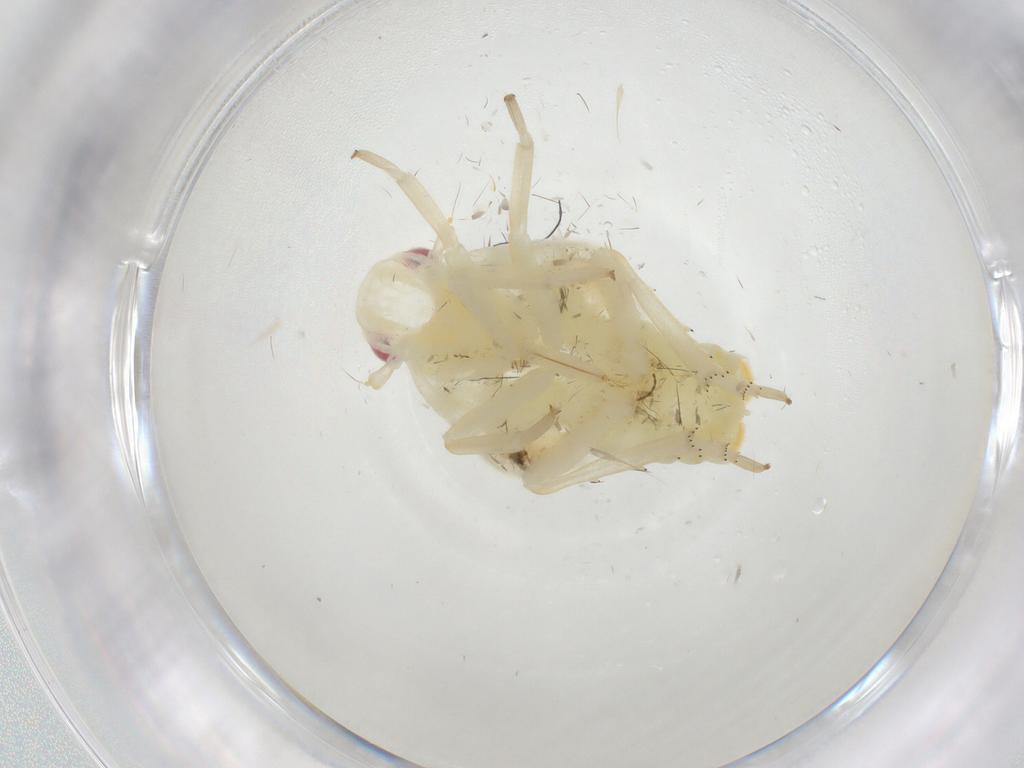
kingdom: Animalia
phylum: Arthropoda
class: Insecta
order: Hemiptera
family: Flatidae
